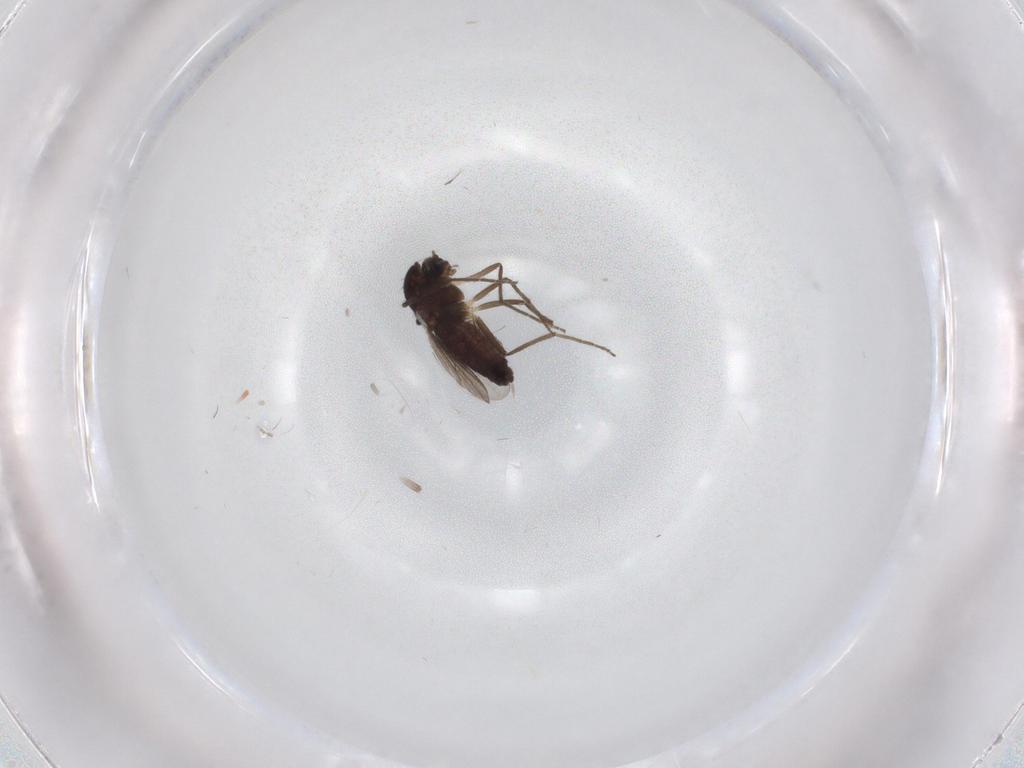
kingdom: Animalia
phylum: Arthropoda
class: Insecta
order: Diptera
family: Chironomidae
